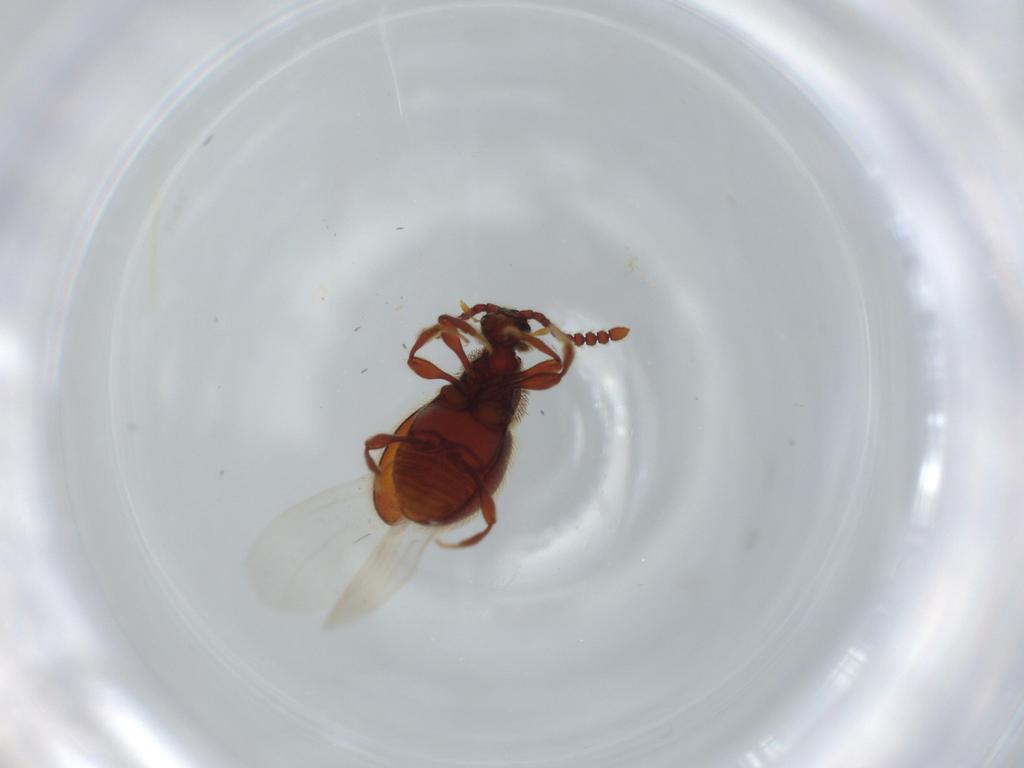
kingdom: Animalia
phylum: Arthropoda
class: Insecta
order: Coleoptera
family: Staphylinidae
